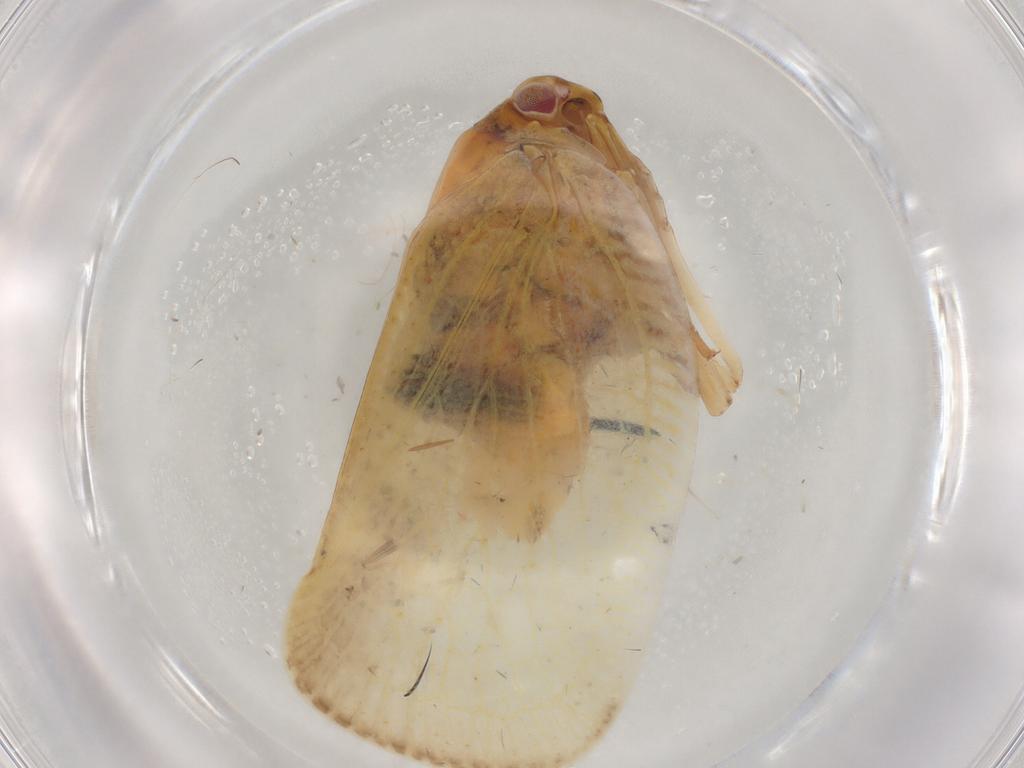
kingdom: Animalia
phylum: Arthropoda
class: Insecta
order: Hemiptera
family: Flatidae
